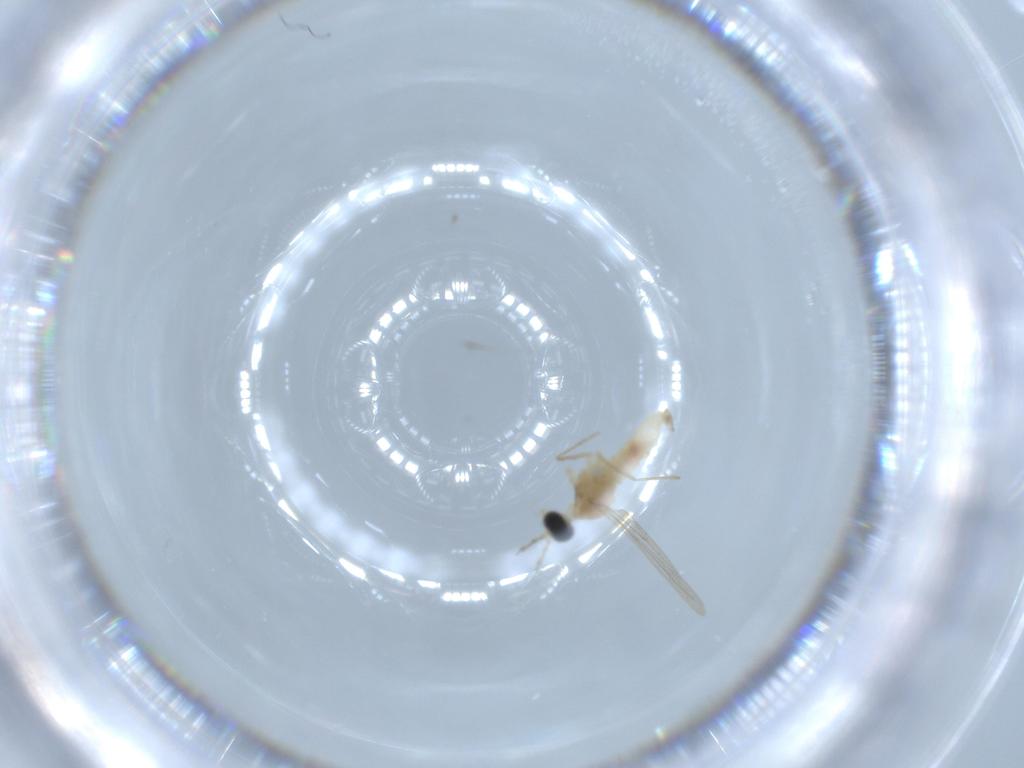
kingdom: Animalia
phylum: Arthropoda
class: Insecta
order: Diptera
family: Cecidomyiidae
